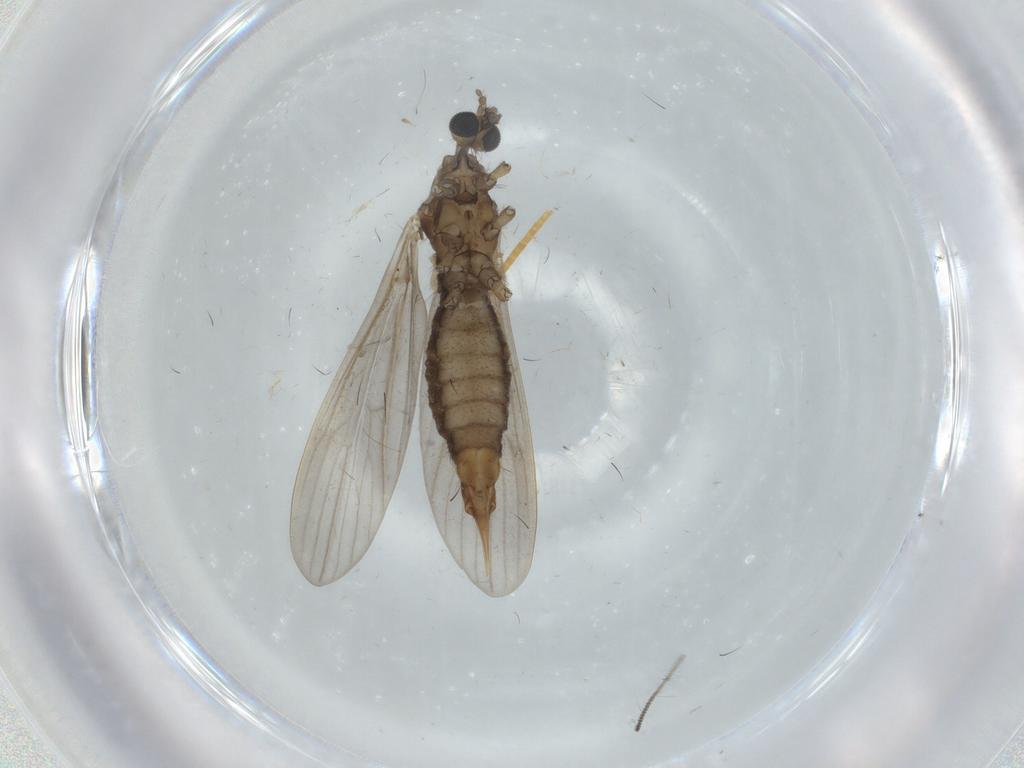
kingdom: Animalia
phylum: Arthropoda
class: Insecta
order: Diptera
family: Limoniidae
